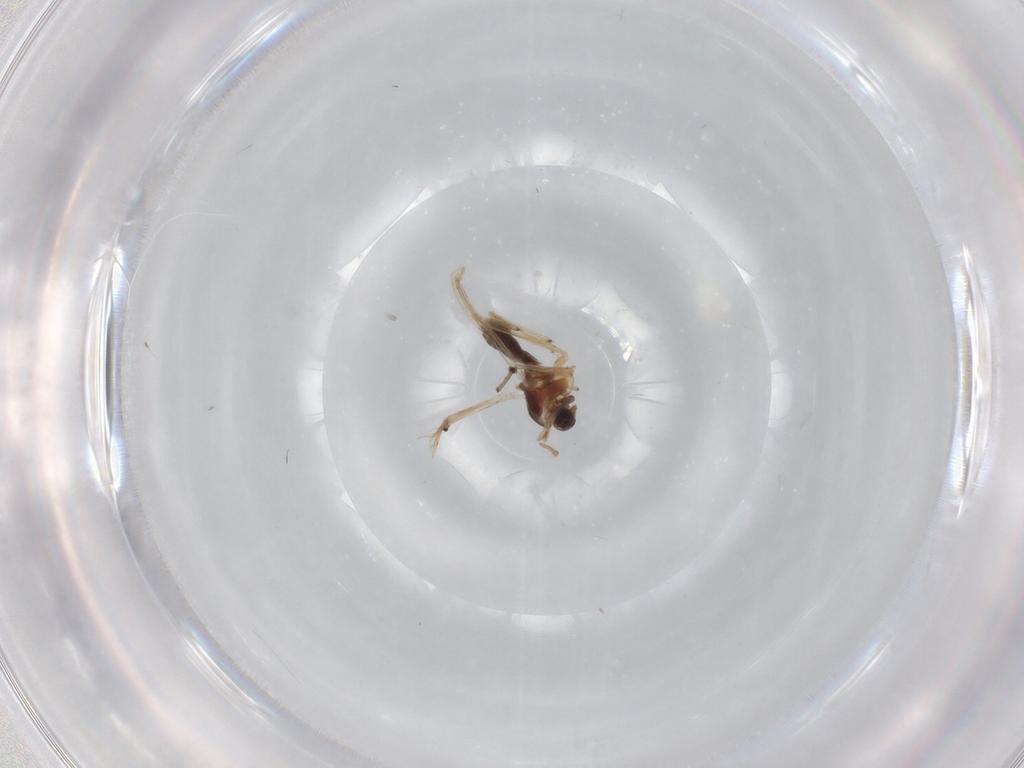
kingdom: Animalia
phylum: Arthropoda
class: Insecta
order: Diptera
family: Chironomidae
